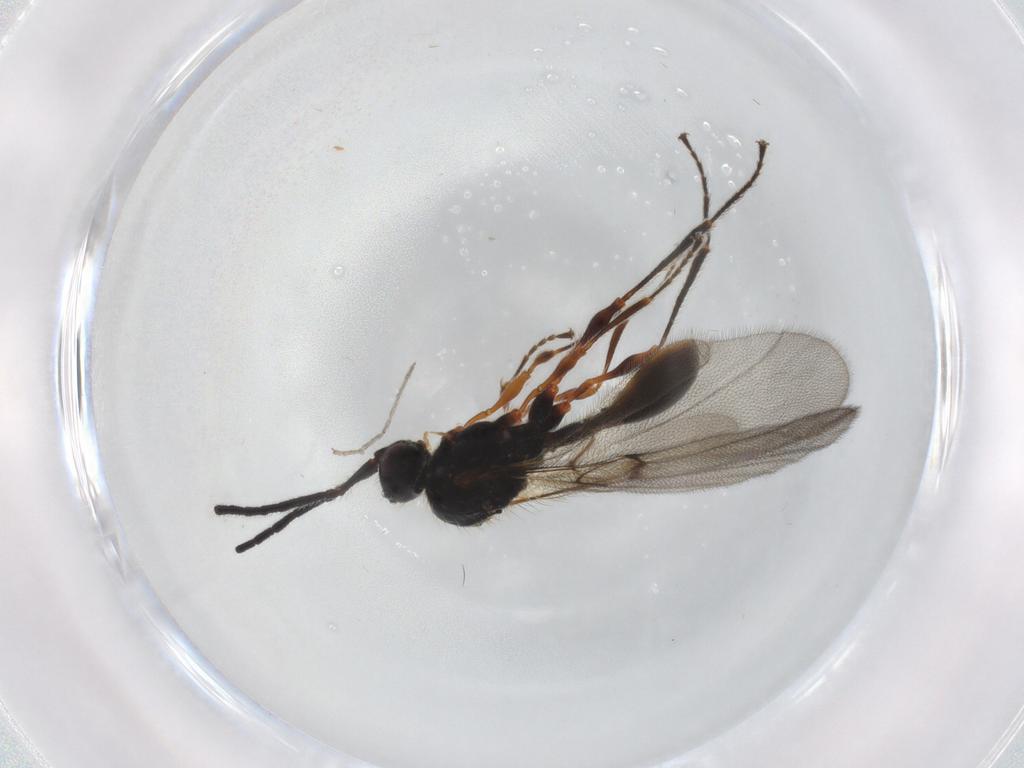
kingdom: Animalia
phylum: Arthropoda
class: Insecta
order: Hymenoptera
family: Diapriidae
